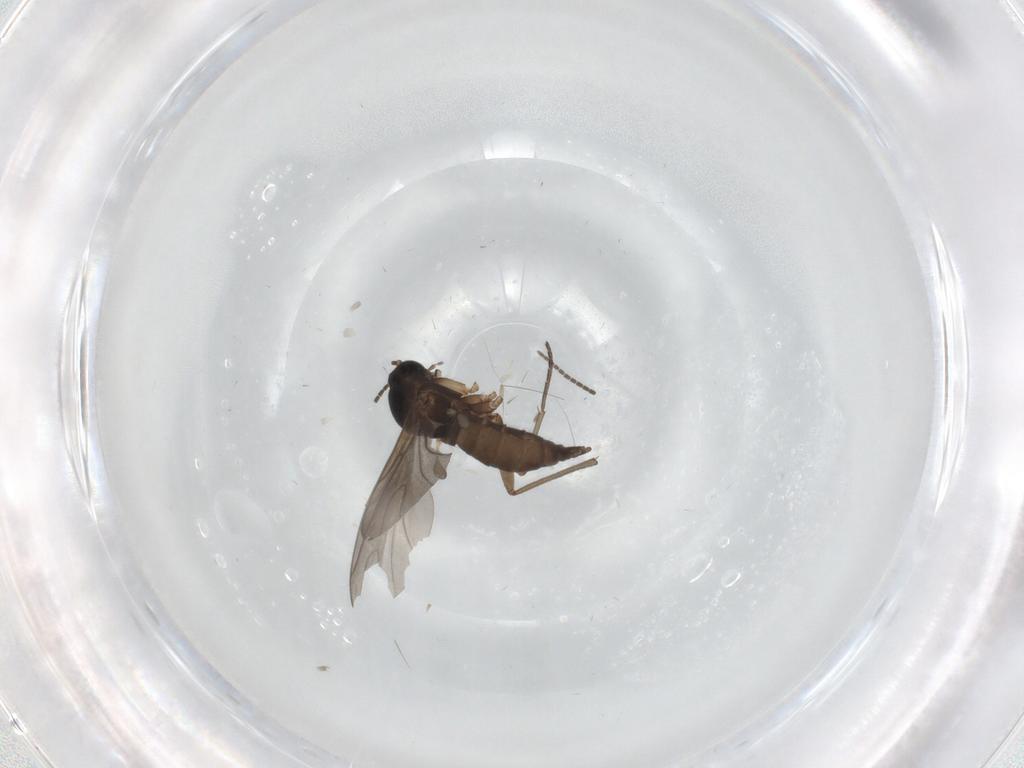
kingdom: Animalia
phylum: Arthropoda
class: Insecta
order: Diptera
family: Sciaridae
